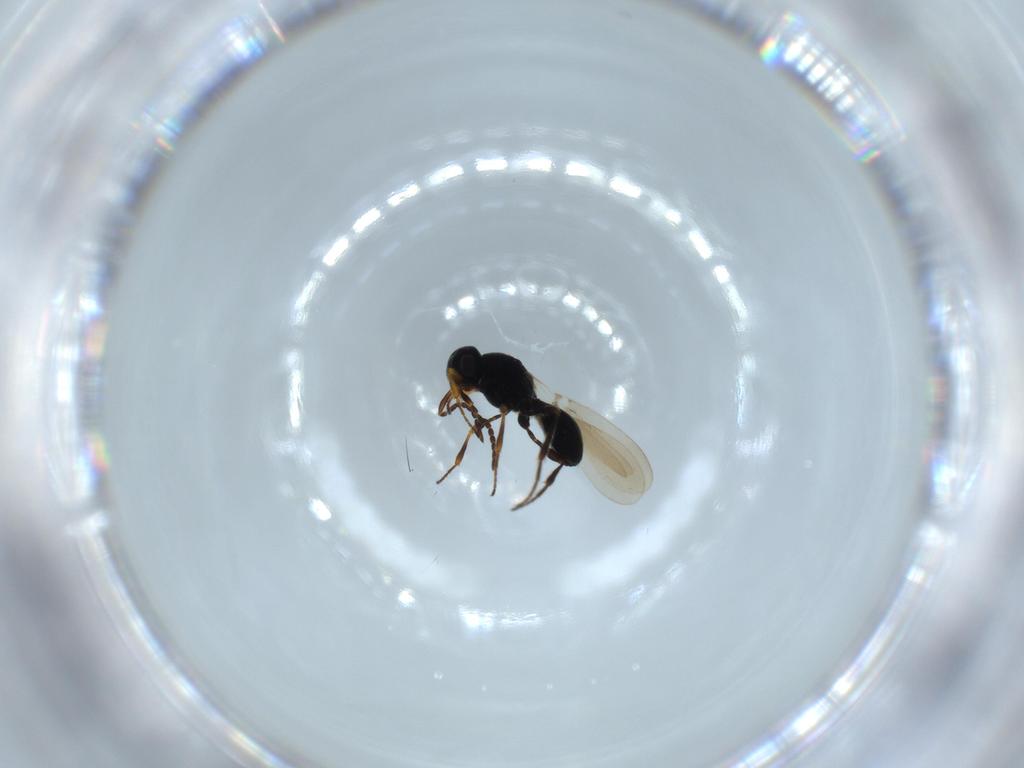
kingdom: Animalia
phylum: Arthropoda
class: Insecta
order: Hymenoptera
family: Platygastridae
